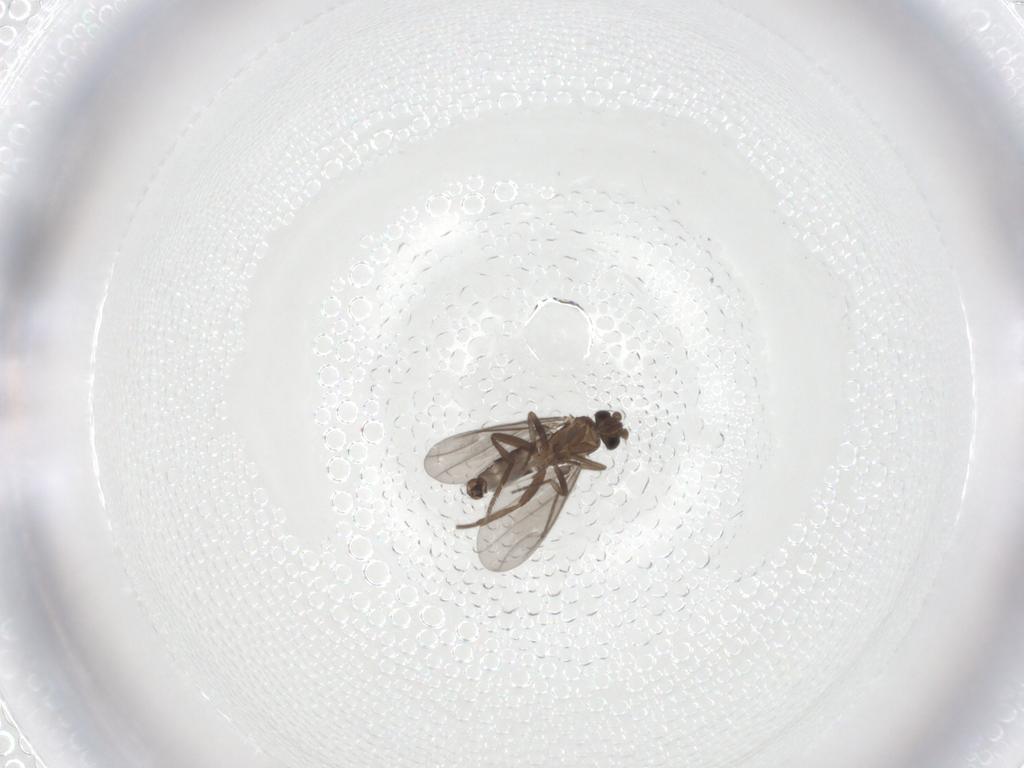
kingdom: Animalia
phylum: Arthropoda
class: Insecta
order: Diptera
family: Phoridae
